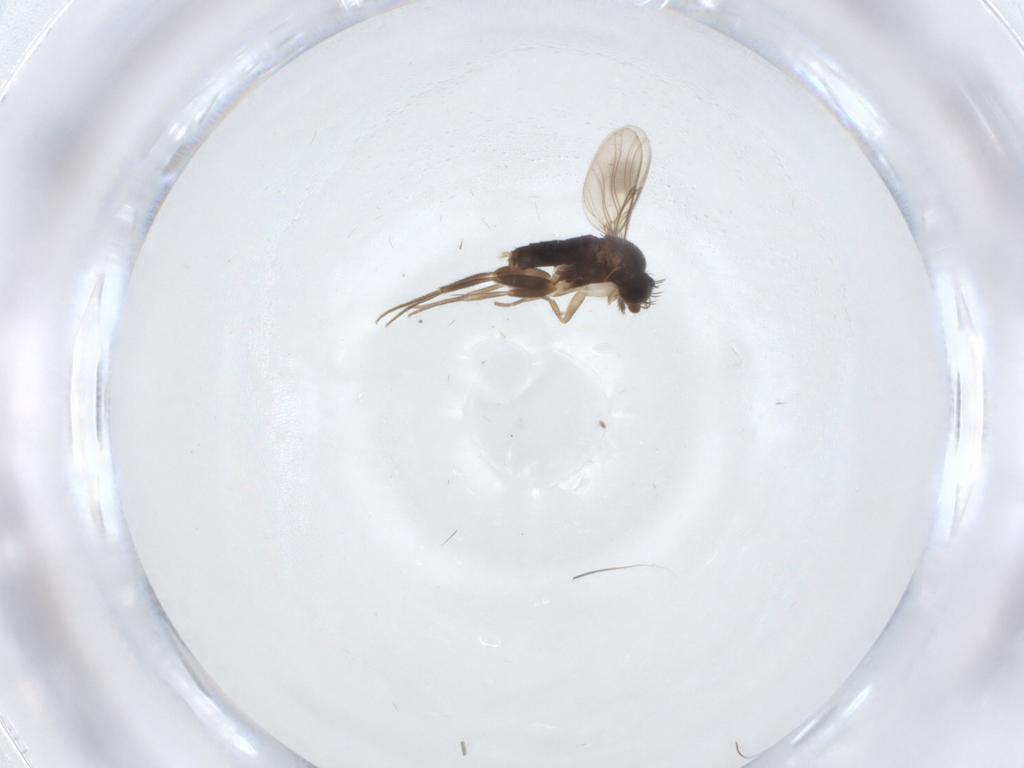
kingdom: Animalia
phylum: Arthropoda
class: Insecta
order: Diptera
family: Phoridae
